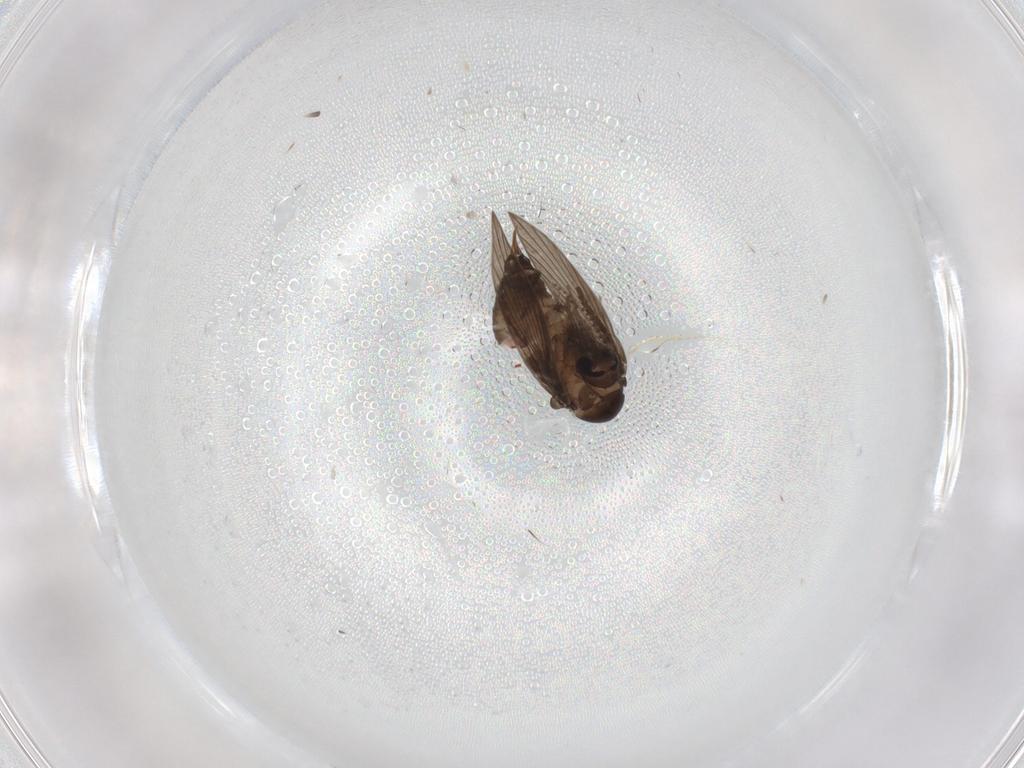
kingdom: Animalia
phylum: Arthropoda
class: Insecta
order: Diptera
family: Psychodidae
